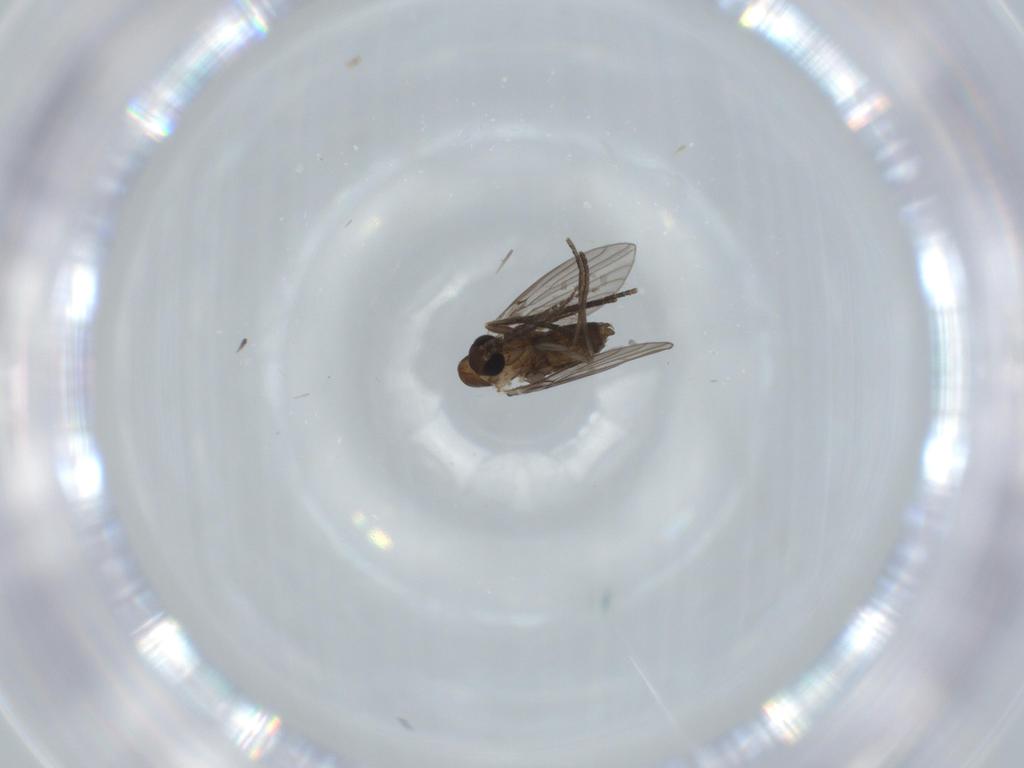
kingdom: Animalia
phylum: Arthropoda
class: Insecta
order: Diptera
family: Psychodidae
